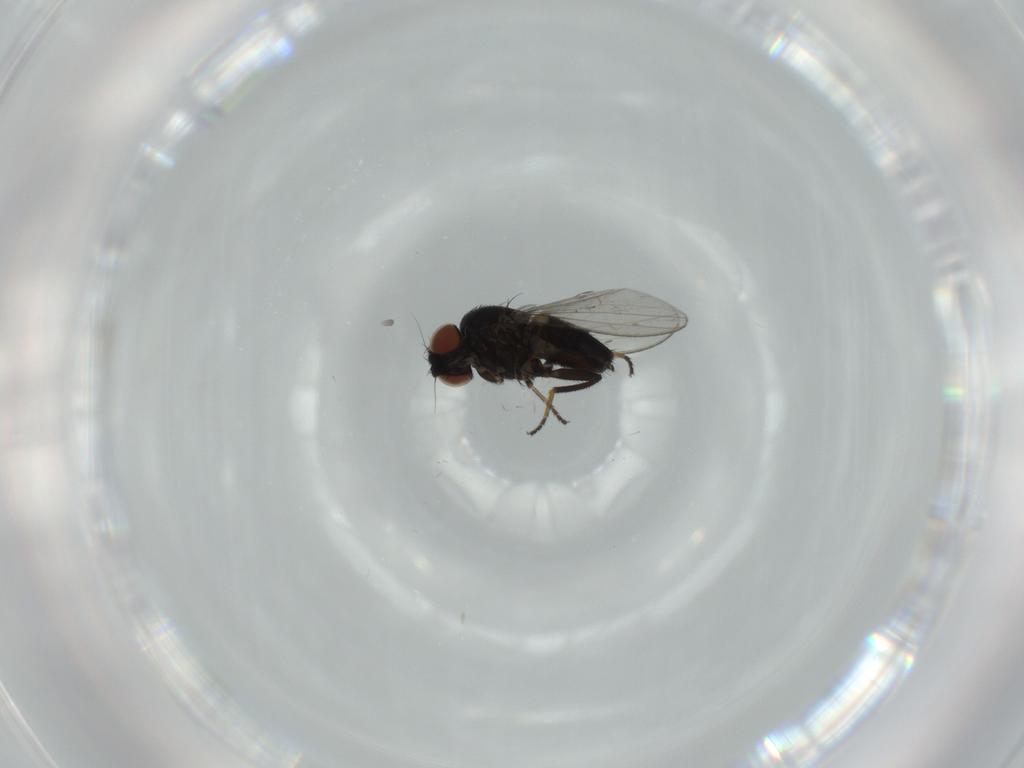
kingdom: Animalia
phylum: Arthropoda
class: Insecta
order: Diptera
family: Milichiidae
